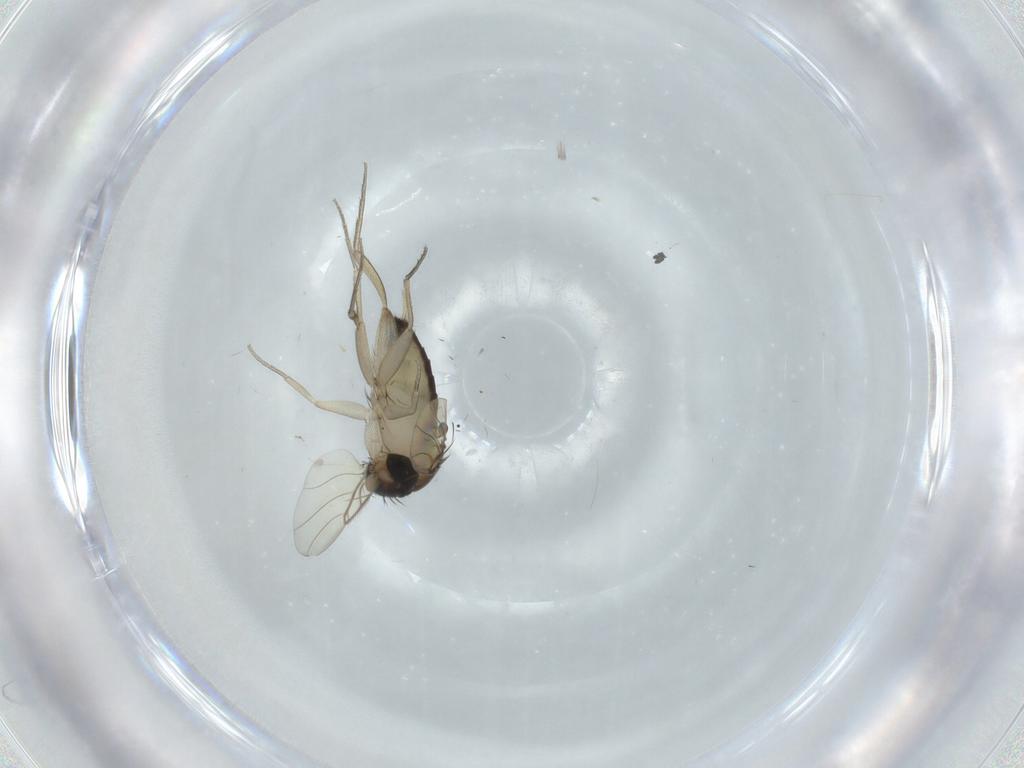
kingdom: Animalia
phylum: Arthropoda
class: Insecta
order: Diptera
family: Phoridae
